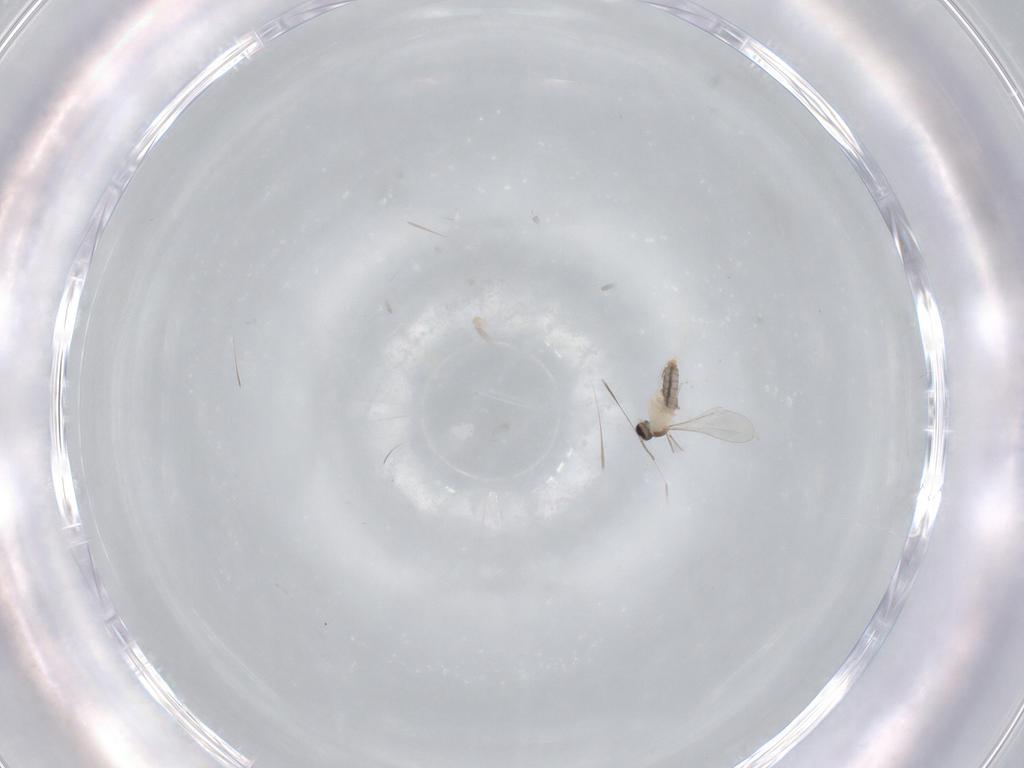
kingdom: Animalia
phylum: Arthropoda
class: Insecta
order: Diptera
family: Cecidomyiidae
